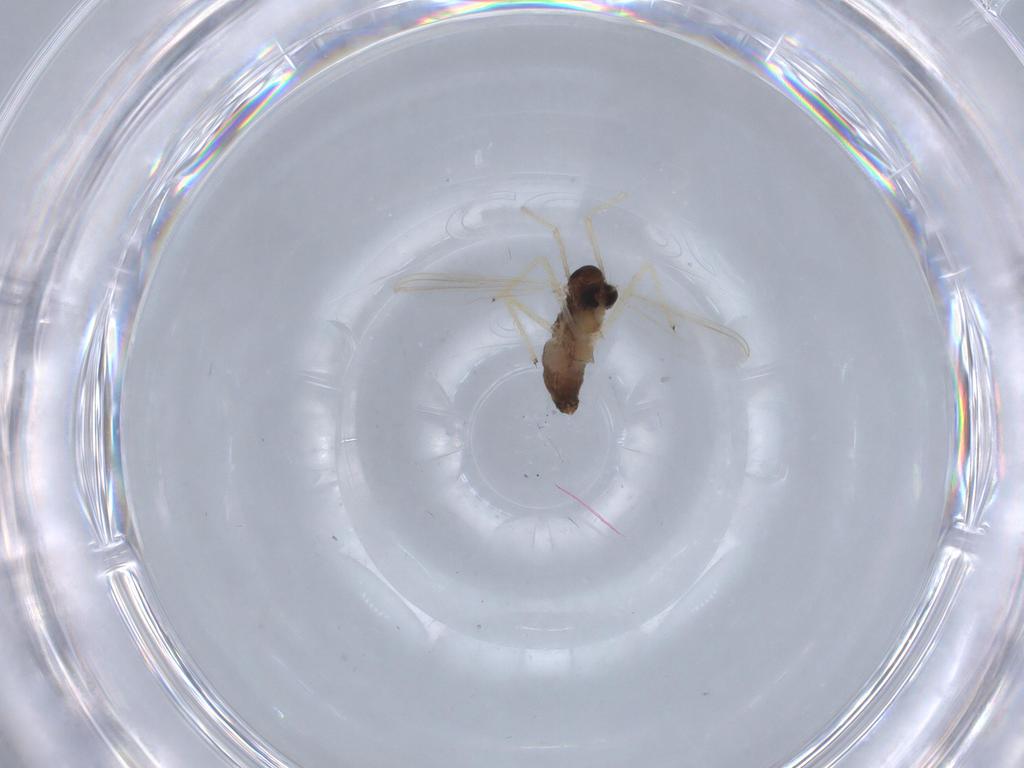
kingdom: Animalia
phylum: Arthropoda
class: Insecta
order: Diptera
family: Chironomidae
